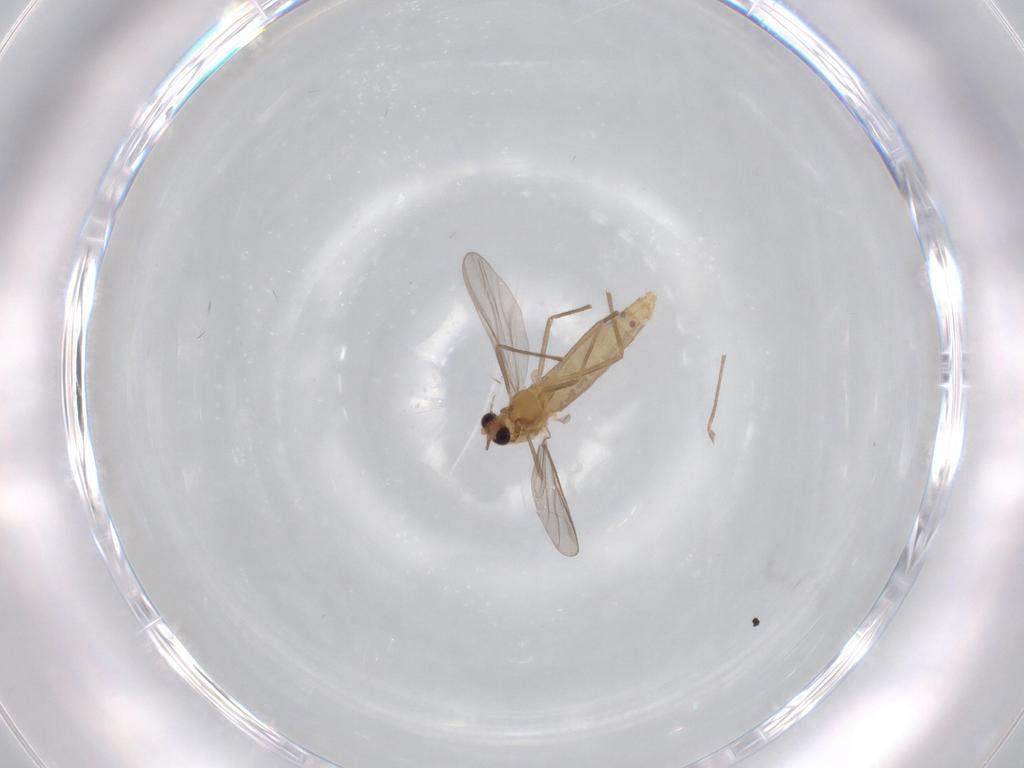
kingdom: Animalia
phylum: Arthropoda
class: Insecta
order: Diptera
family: Chironomidae
